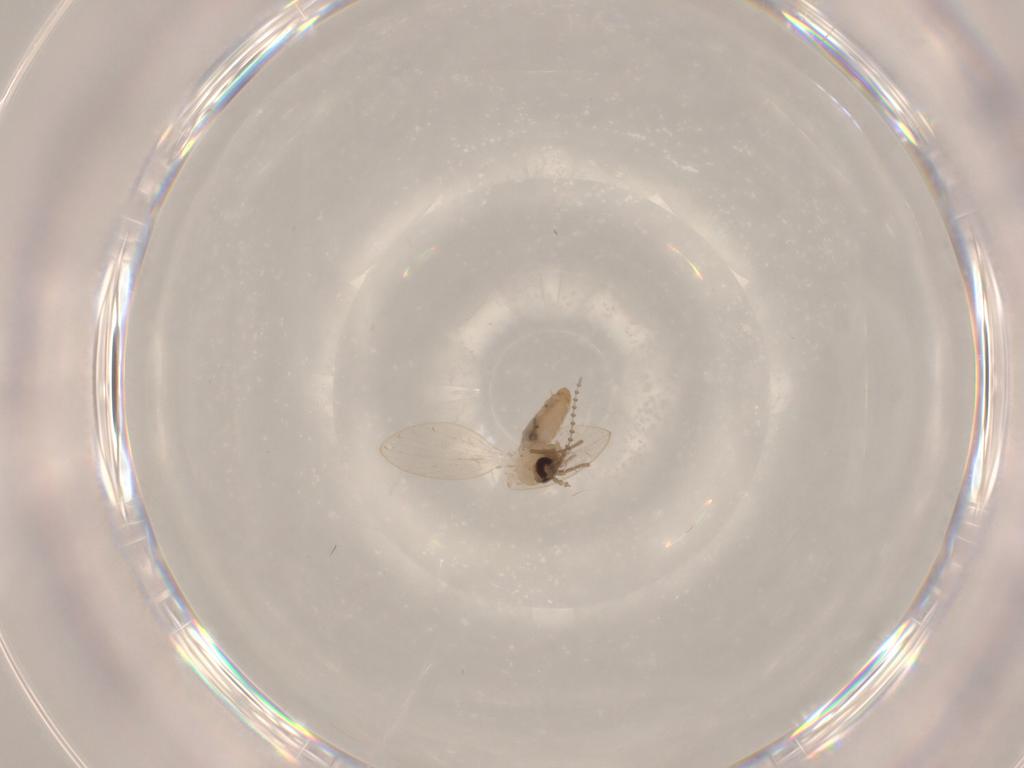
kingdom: Animalia
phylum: Arthropoda
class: Insecta
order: Diptera
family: Psychodidae
